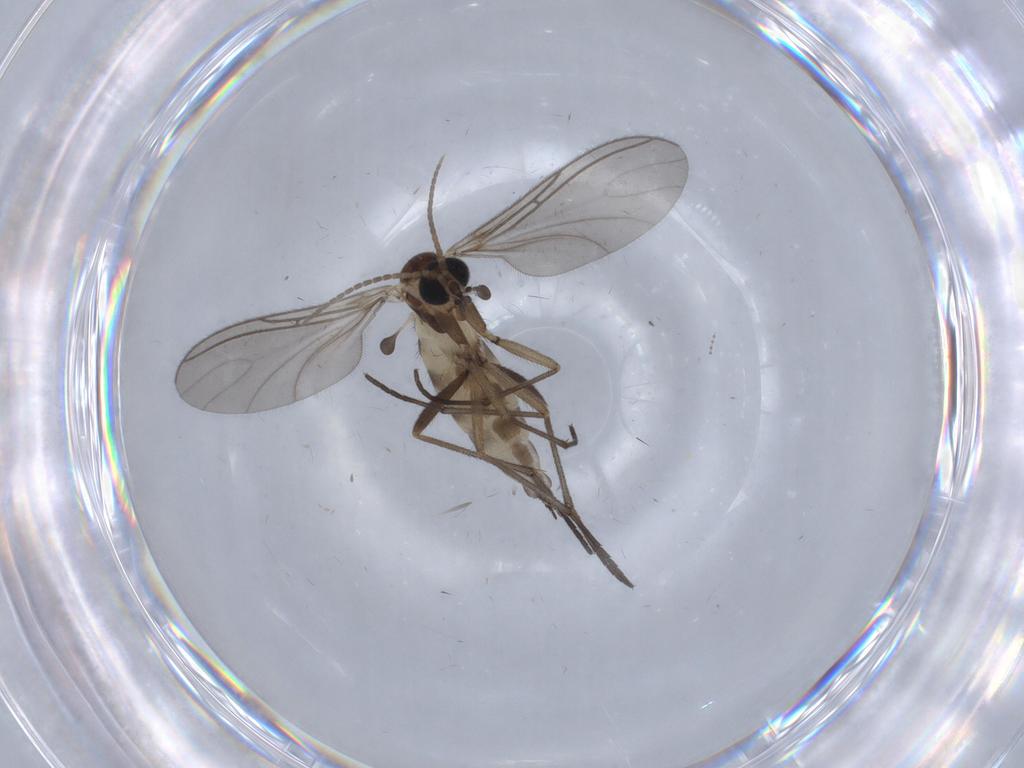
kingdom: Animalia
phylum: Arthropoda
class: Insecta
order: Diptera
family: Sciaridae
